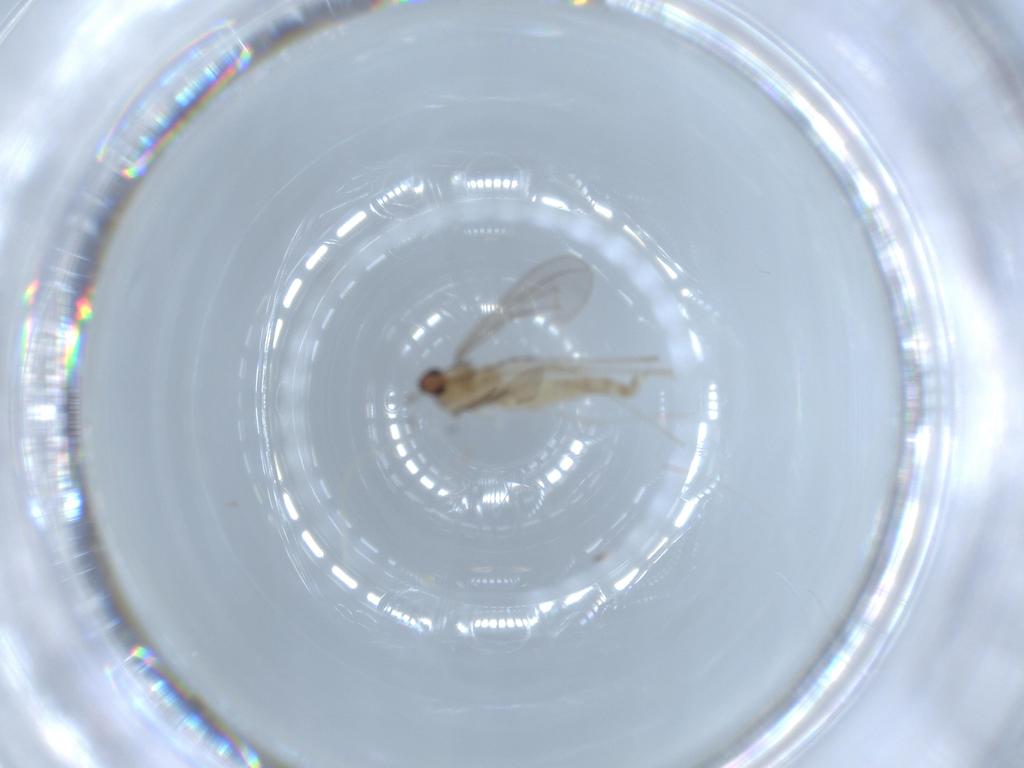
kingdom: Animalia
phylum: Arthropoda
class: Insecta
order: Diptera
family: Cecidomyiidae
